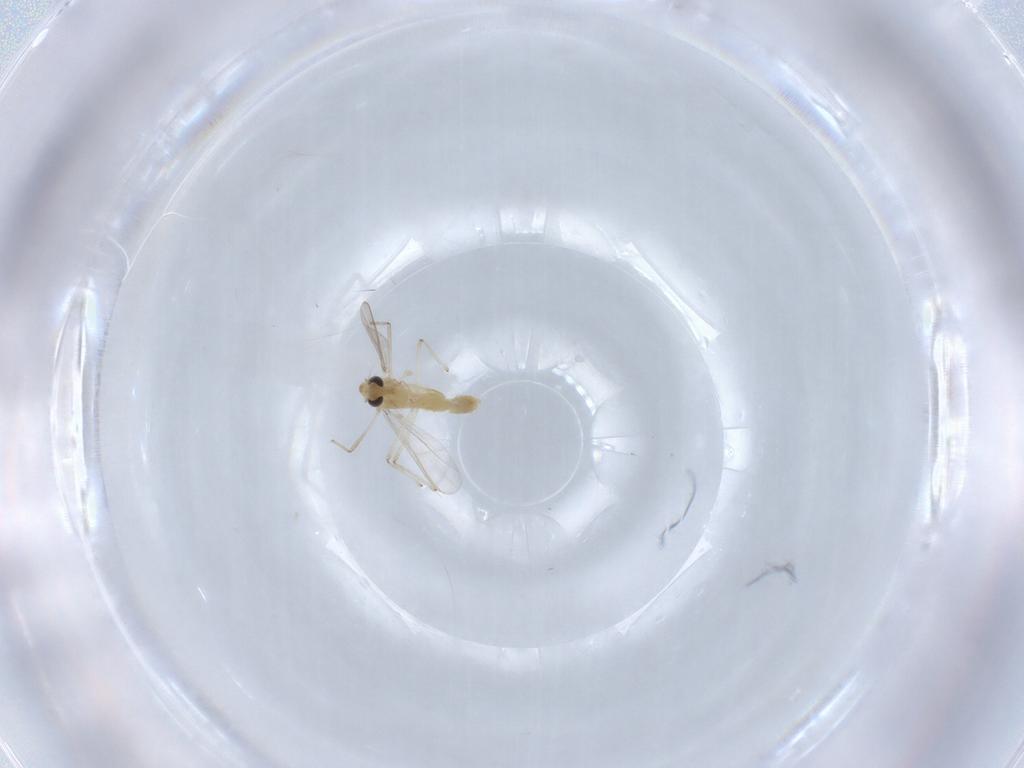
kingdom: Animalia
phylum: Arthropoda
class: Insecta
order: Diptera
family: Chironomidae
